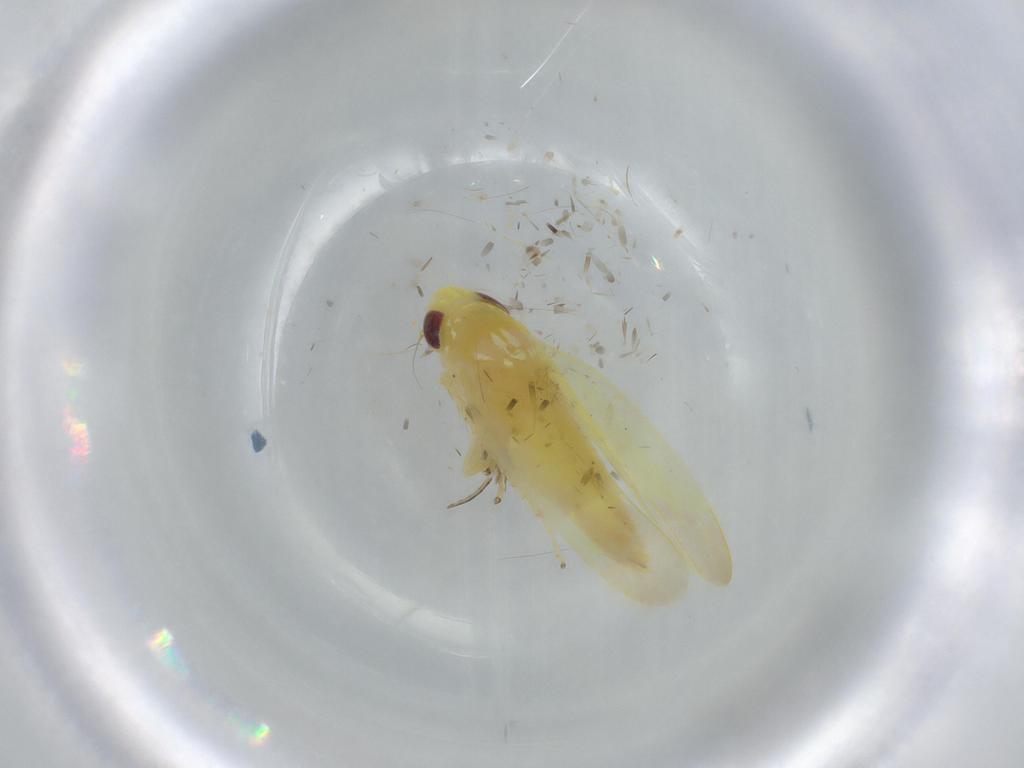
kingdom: Animalia
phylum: Arthropoda
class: Insecta
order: Hemiptera
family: Cicadellidae
